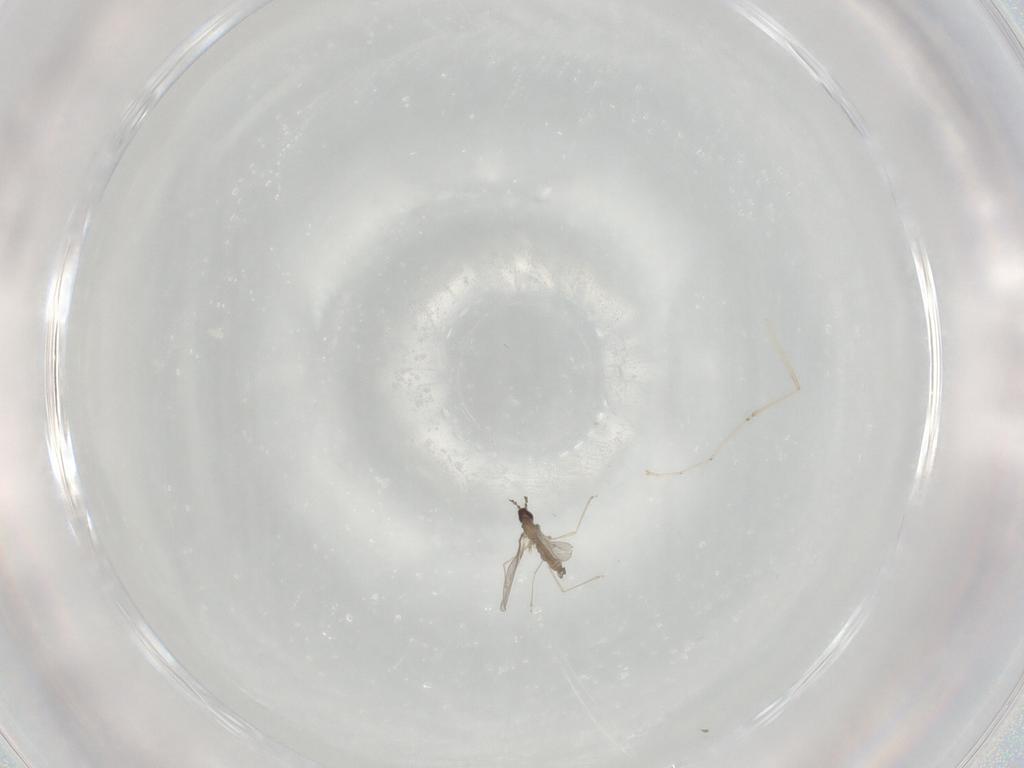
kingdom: Animalia
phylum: Arthropoda
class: Insecta
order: Diptera
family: Cecidomyiidae
